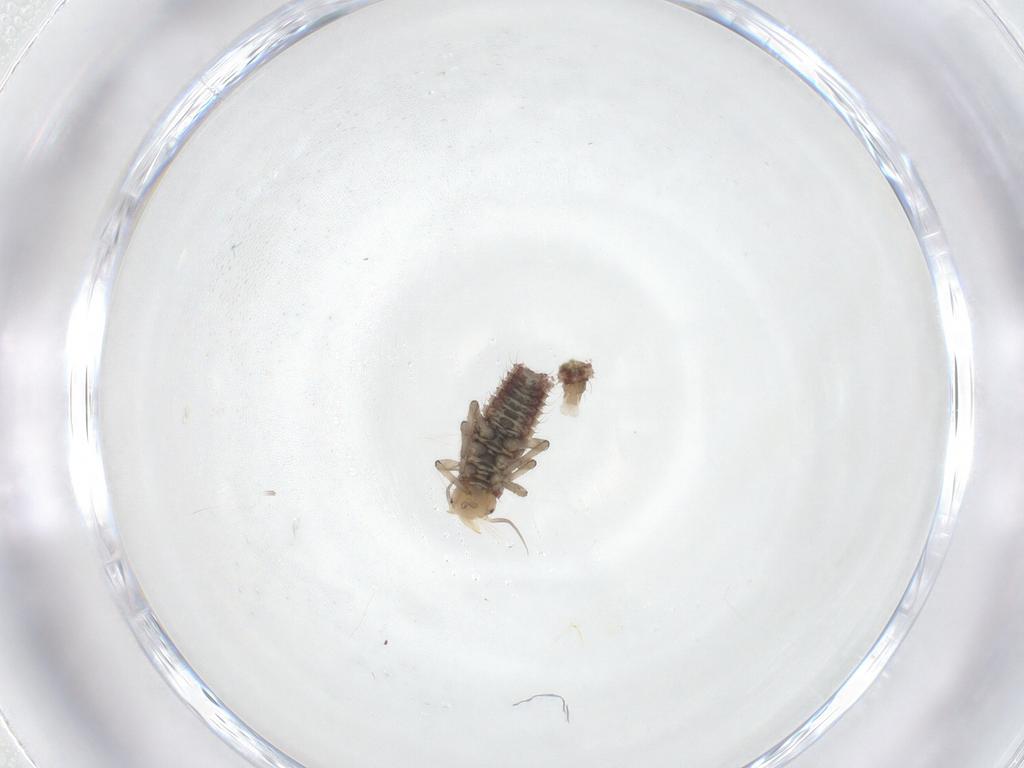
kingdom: Animalia
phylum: Arthropoda
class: Insecta
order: Neuroptera
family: Hemerobiidae
